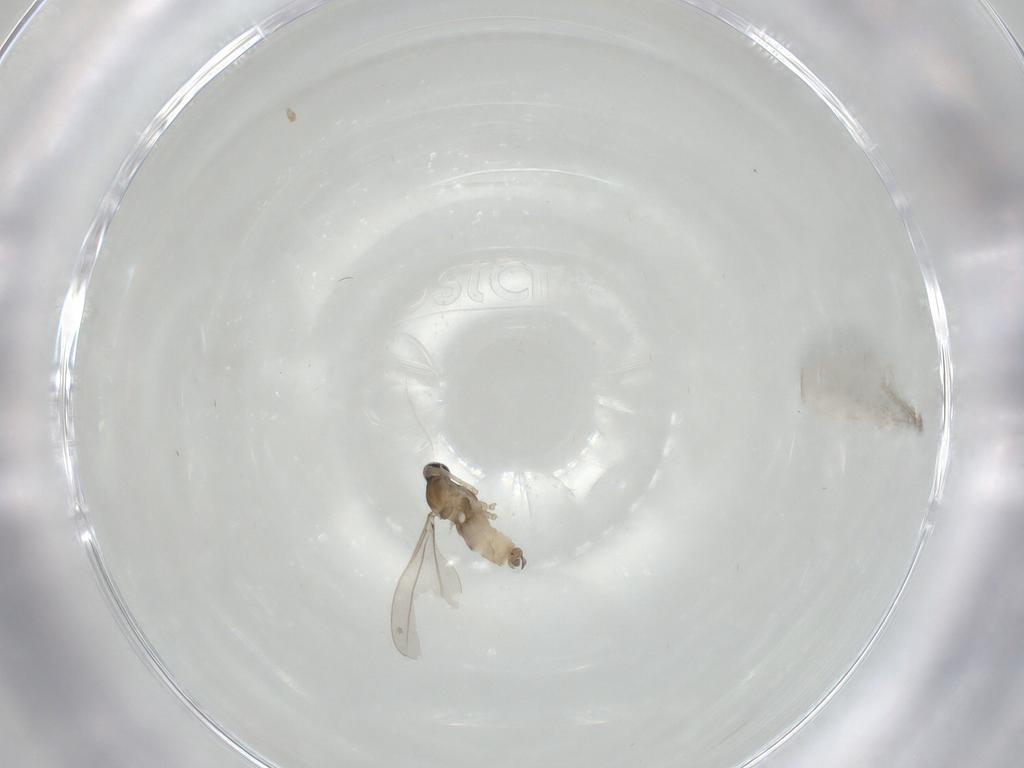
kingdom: Animalia
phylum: Arthropoda
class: Insecta
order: Diptera
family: Cecidomyiidae
